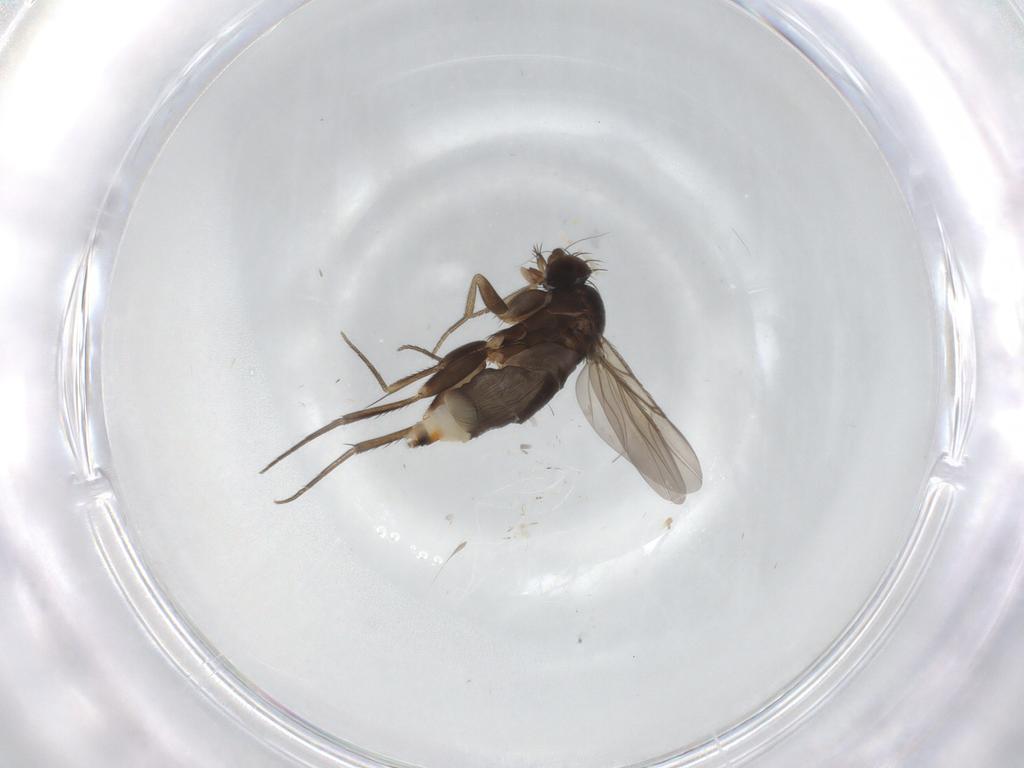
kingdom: Animalia
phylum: Arthropoda
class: Insecta
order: Diptera
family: Phoridae
